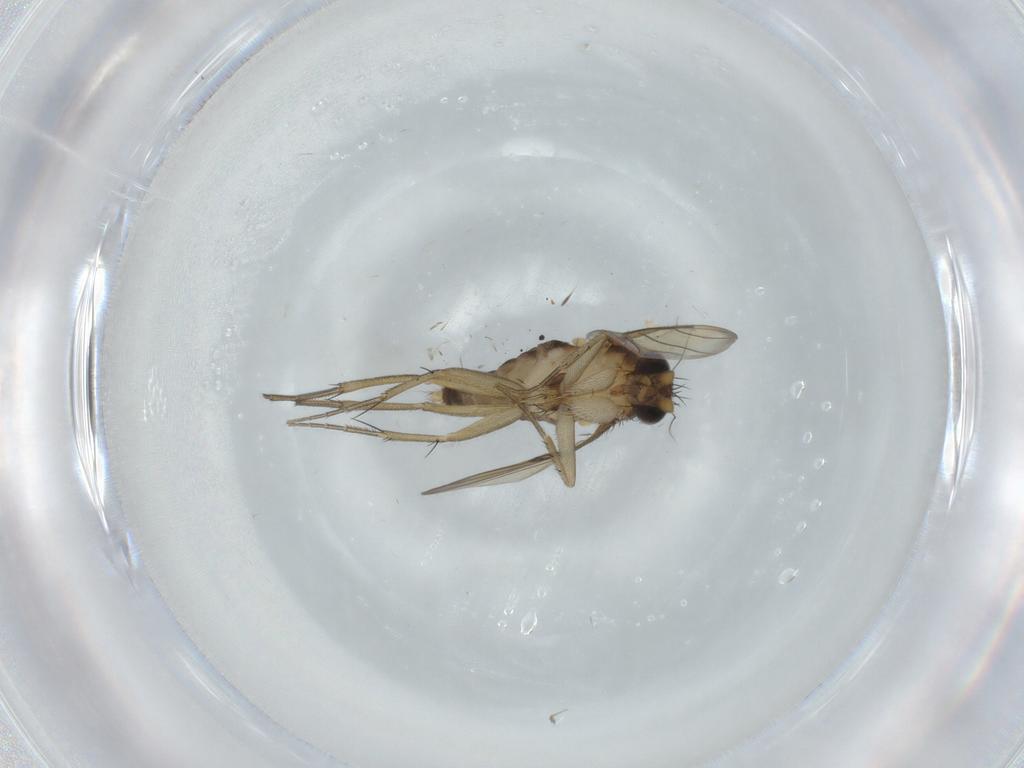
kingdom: Animalia
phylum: Arthropoda
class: Insecta
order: Diptera
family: Phoridae
